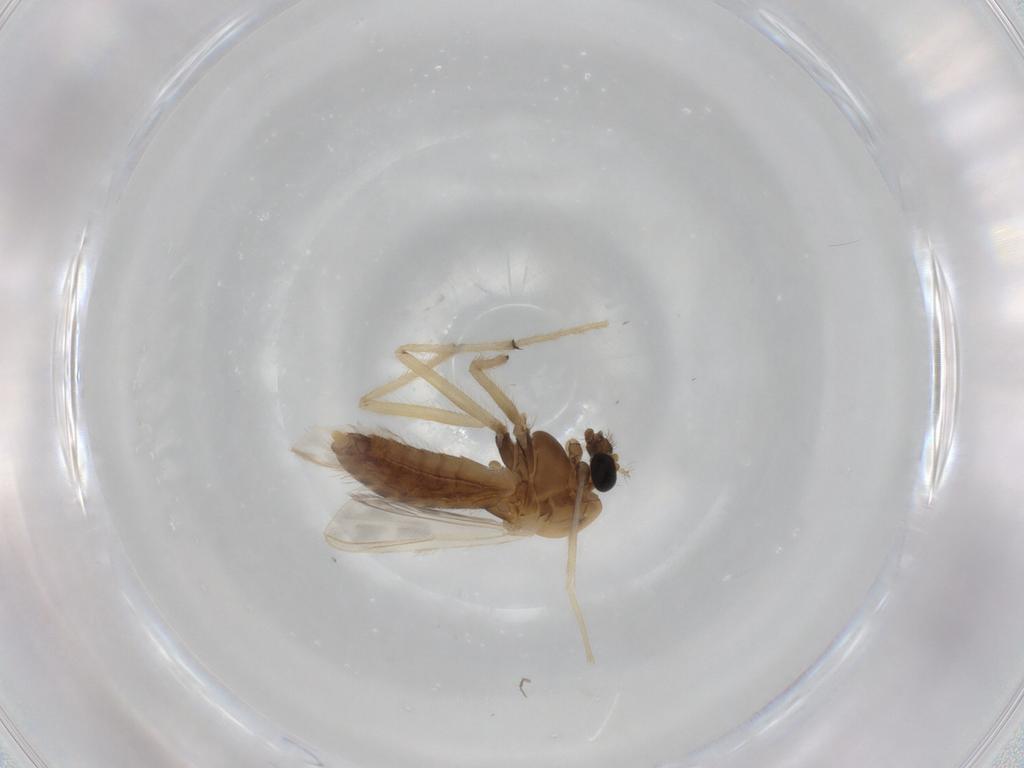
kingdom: Animalia
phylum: Arthropoda
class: Insecta
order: Diptera
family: Chironomidae
